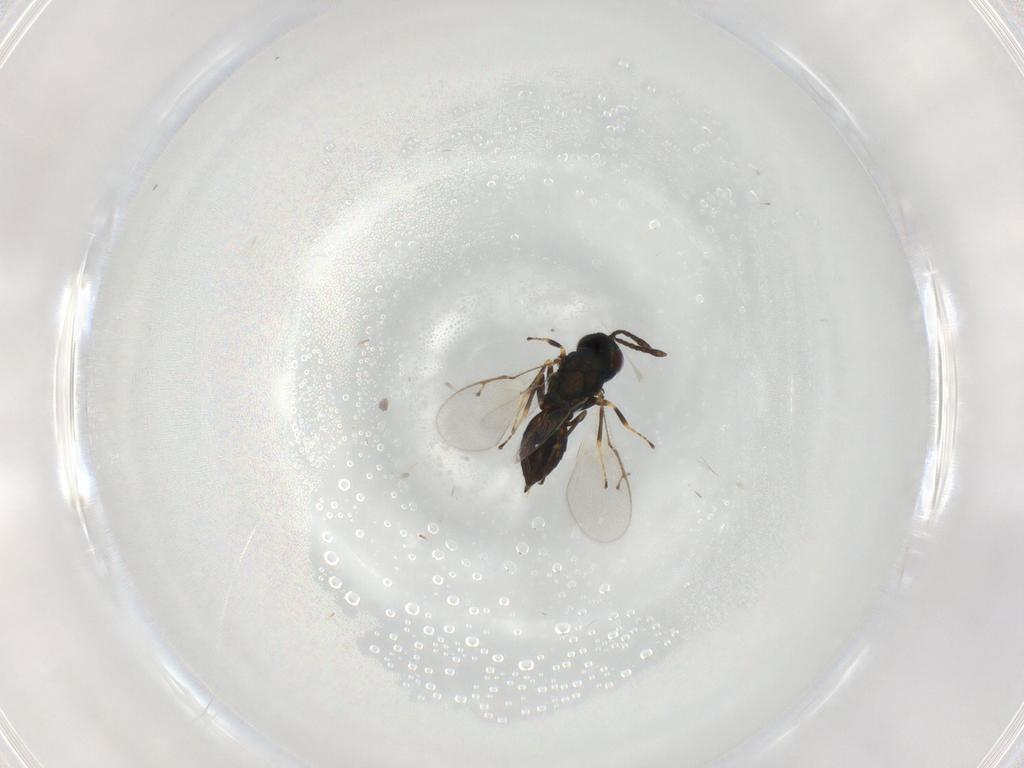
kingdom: Animalia
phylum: Arthropoda
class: Insecta
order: Hymenoptera
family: Pteromalidae
